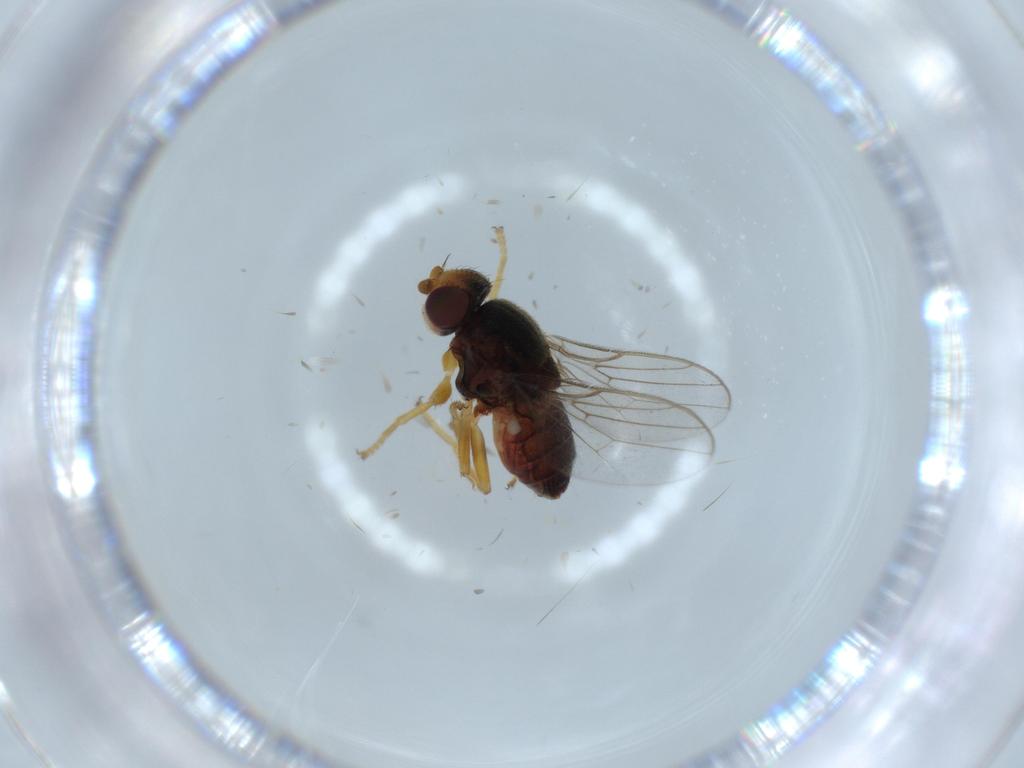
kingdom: Animalia
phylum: Arthropoda
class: Insecta
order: Diptera
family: Chloropidae
